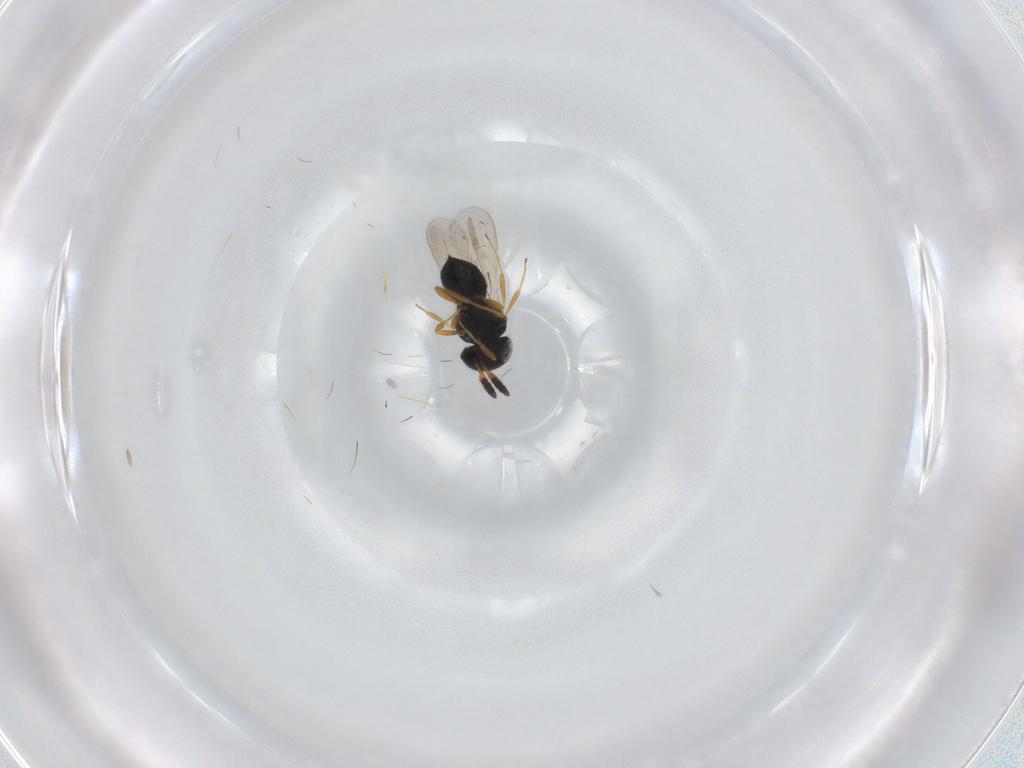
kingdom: Animalia
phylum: Arthropoda
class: Insecta
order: Hymenoptera
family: Scelionidae
